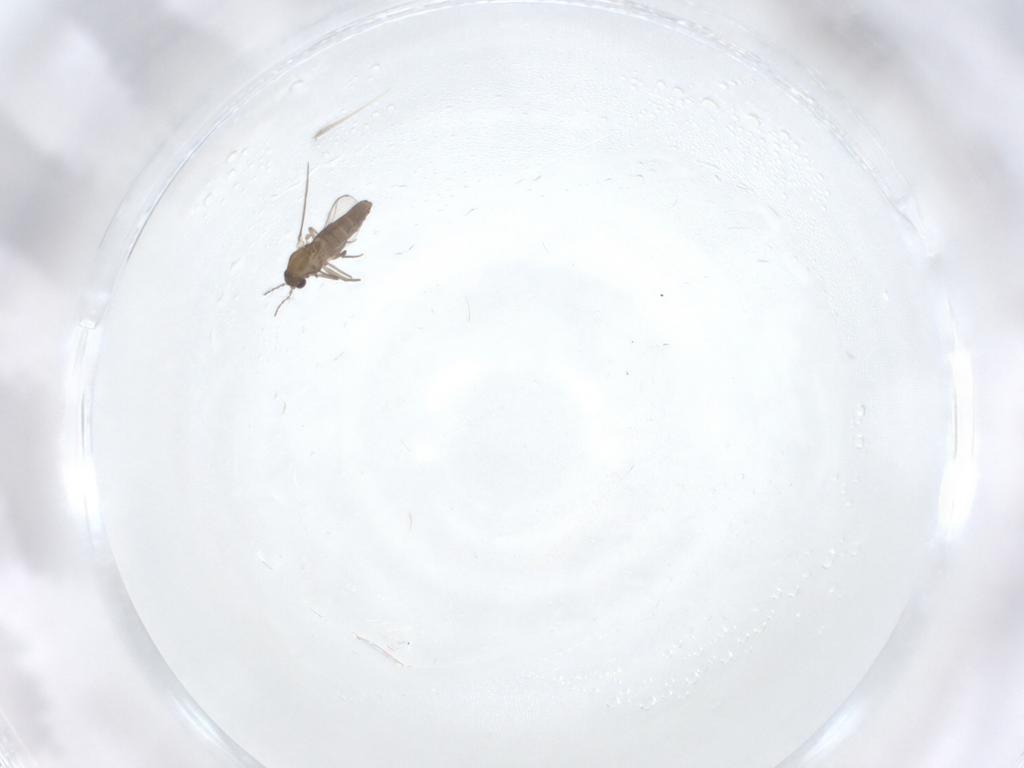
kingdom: Animalia
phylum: Arthropoda
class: Insecta
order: Diptera
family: Chironomidae
